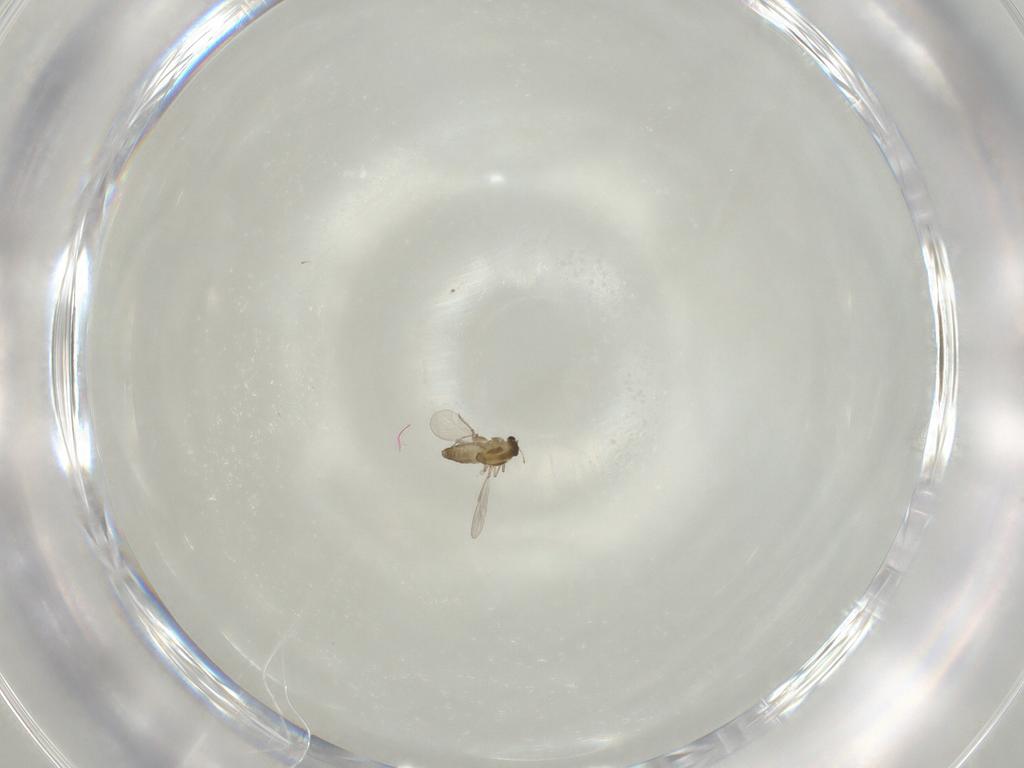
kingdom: Animalia
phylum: Arthropoda
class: Insecta
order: Diptera
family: Chironomidae
